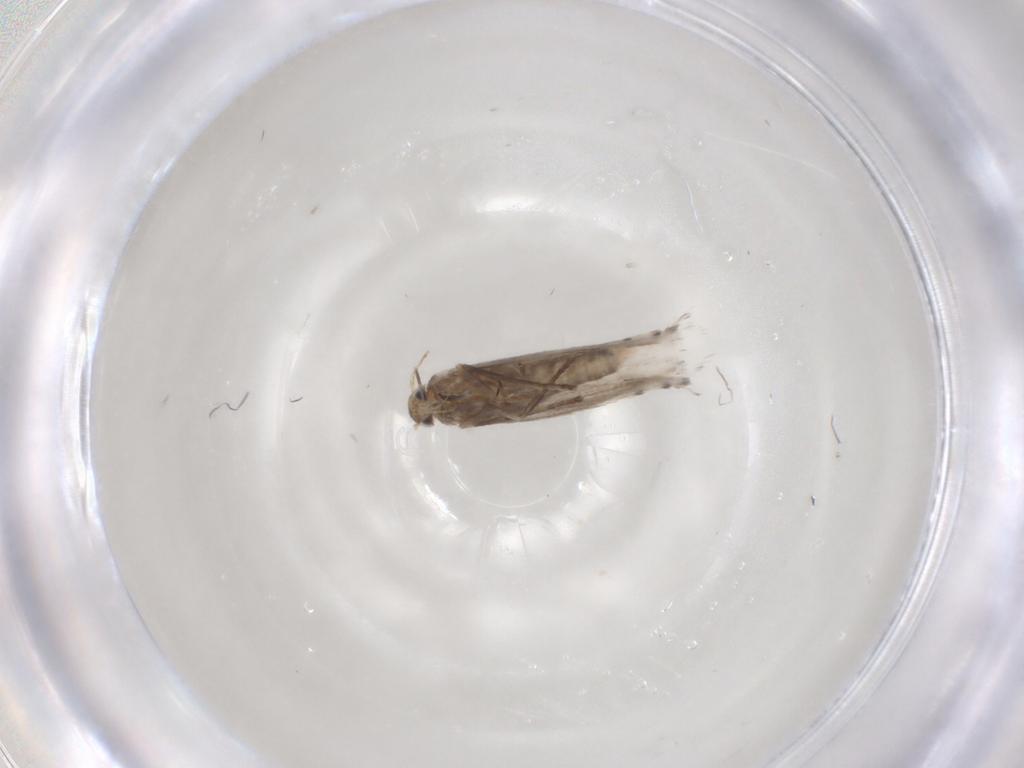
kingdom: Animalia
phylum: Arthropoda
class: Insecta
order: Lepidoptera
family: Gracillariidae
